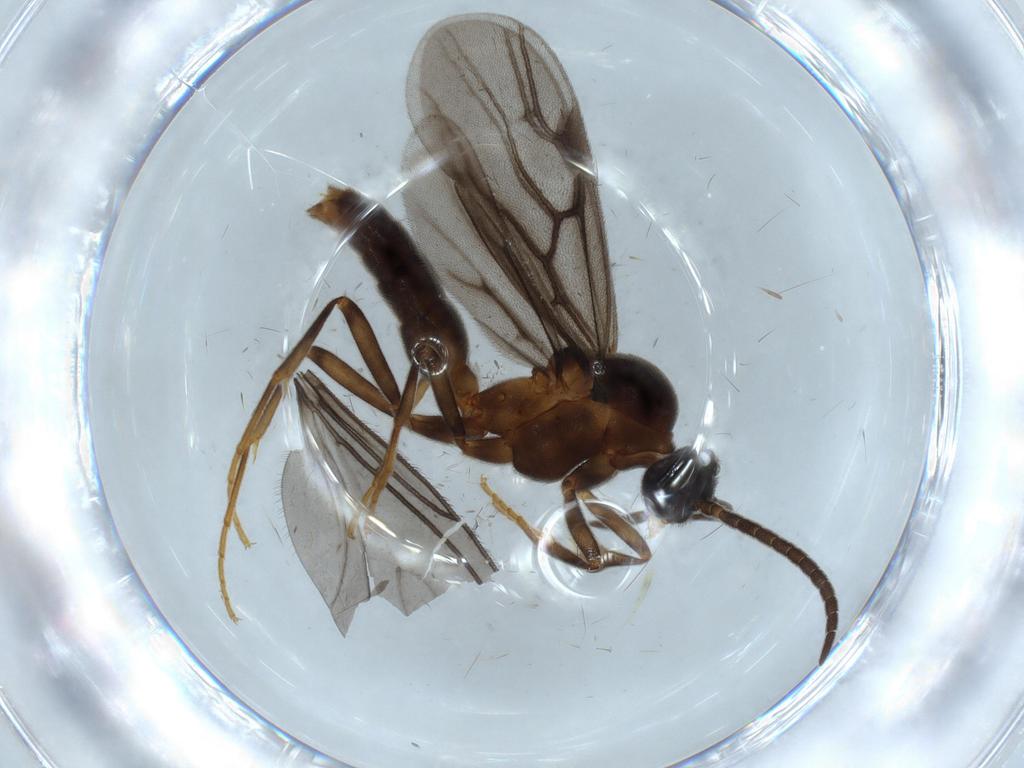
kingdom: Animalia
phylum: Arthropoda
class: Insecta
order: Hymenoptera
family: Formicidae
